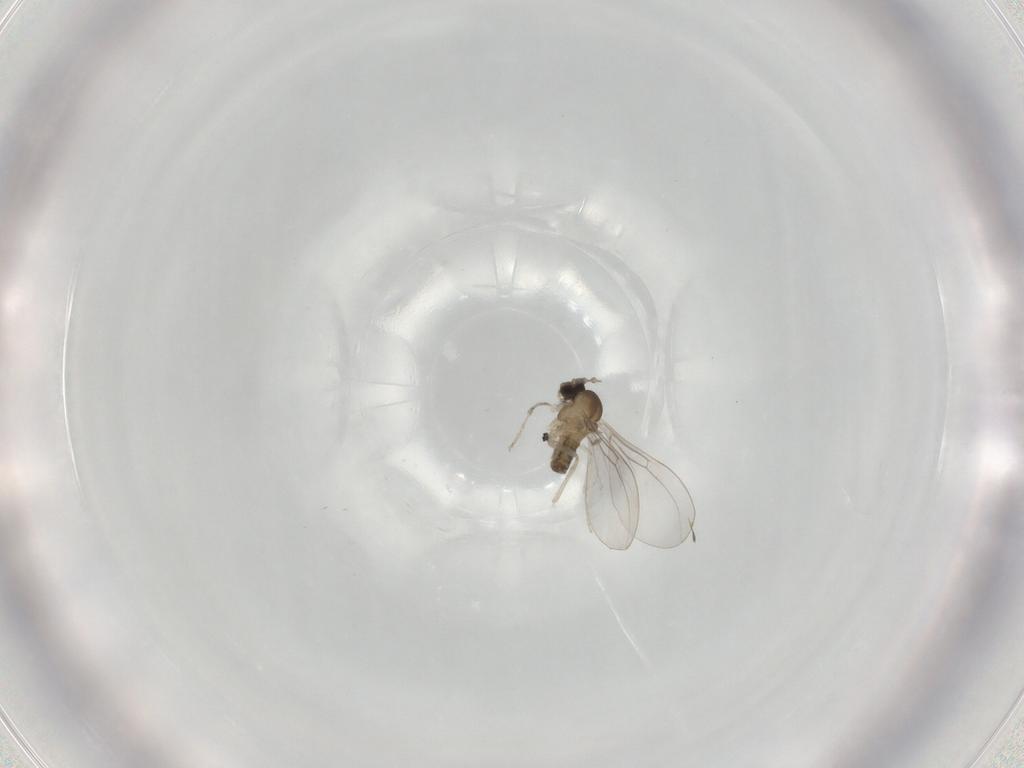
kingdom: Animalia
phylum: Arthropoda
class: Insecta
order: Diptera
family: Cecidomyiidae
